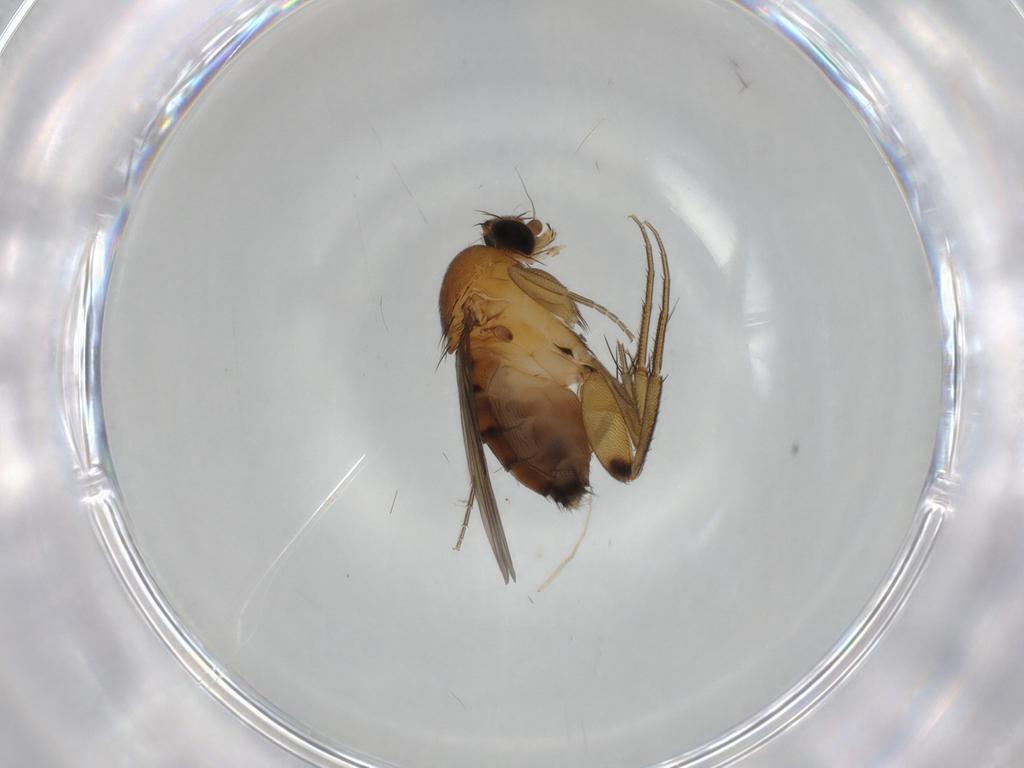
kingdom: Animalia
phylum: Arthropoda
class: Insecta
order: Diptera
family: Phoridae
